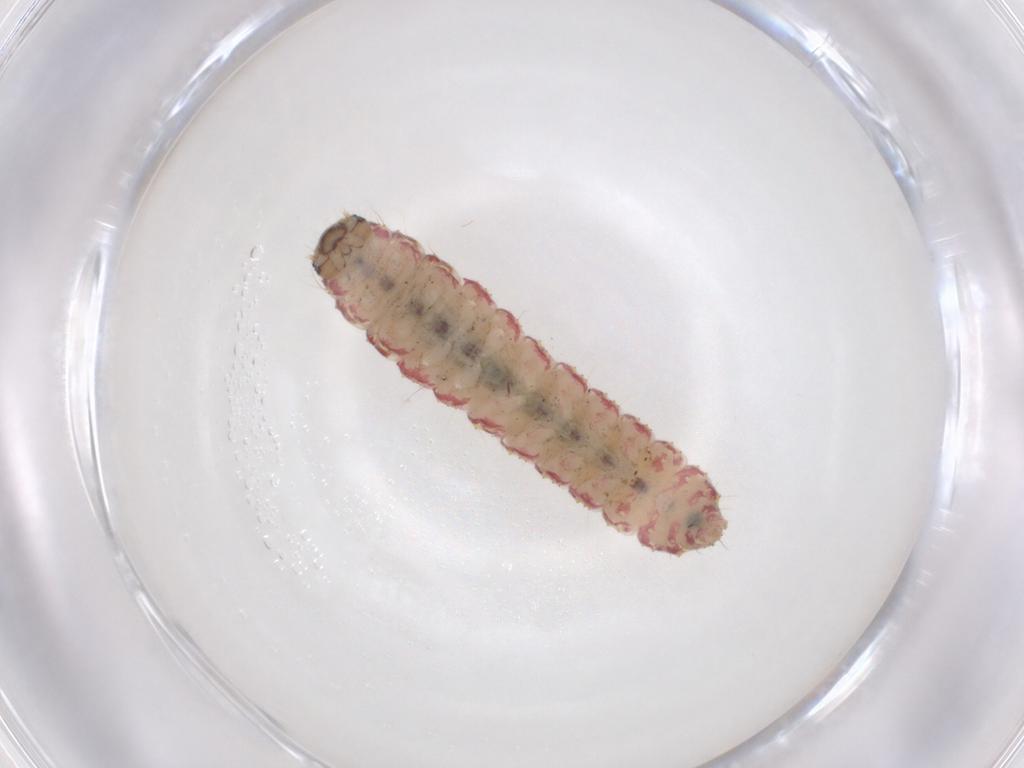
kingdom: Animalia
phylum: Arthropoda
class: Insecta
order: Lepidoptera
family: Erebidae
